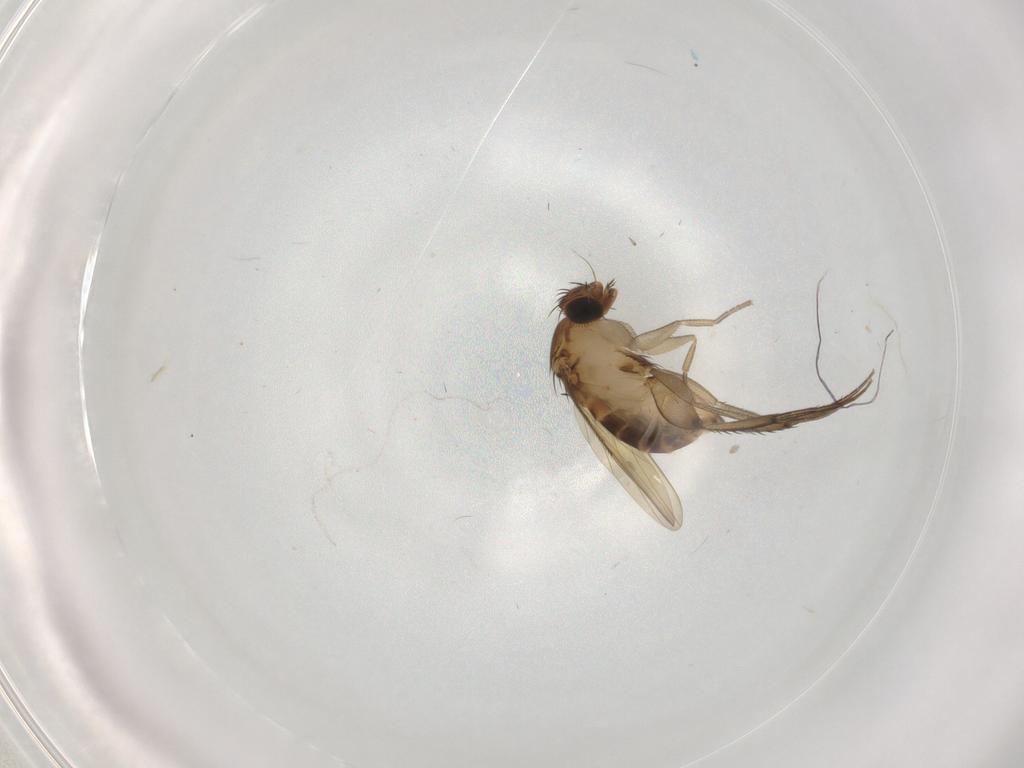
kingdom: Animalia
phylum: Arthropoda
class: Insecta
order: Diptera
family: Phoridae
